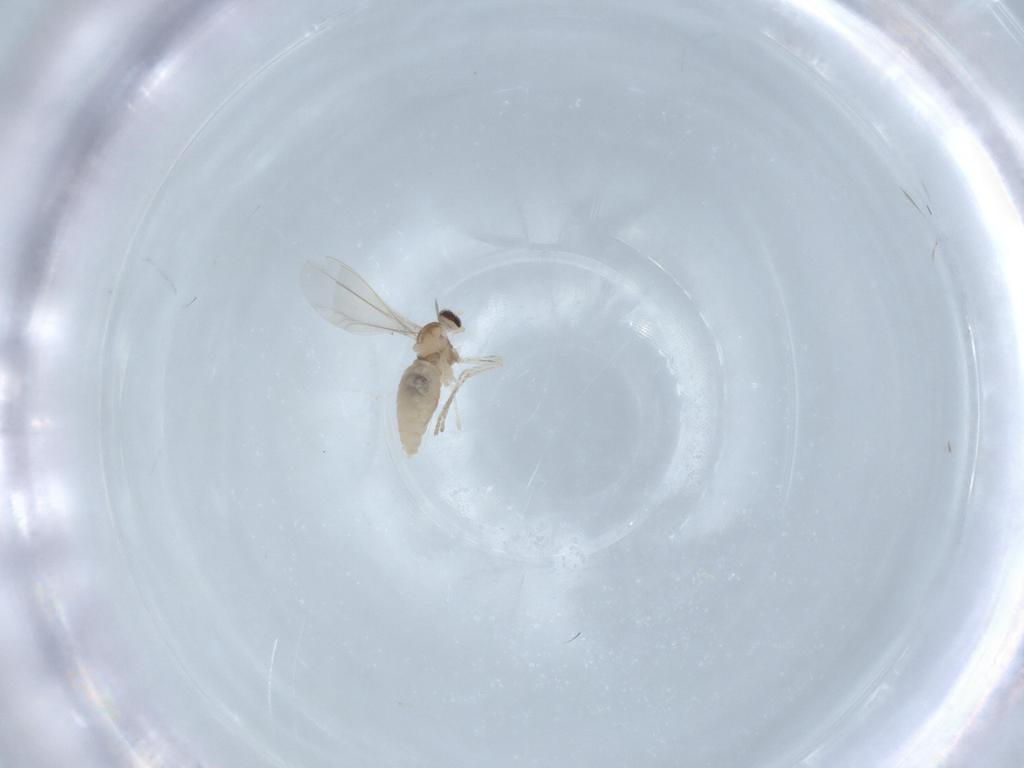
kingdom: Animalia
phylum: Arthropoda
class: Insecta
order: Diptera
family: Cecidomyiidae
